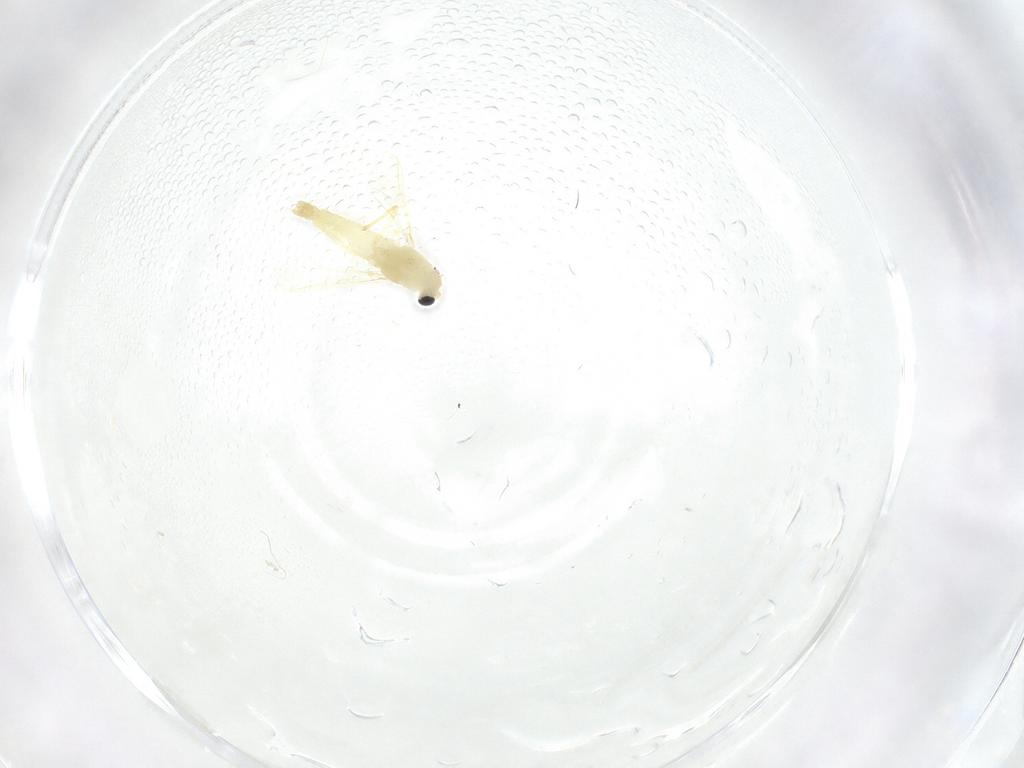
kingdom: Animalia
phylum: Arthropoda
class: Insecta
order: Diptera
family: Chironomidae
